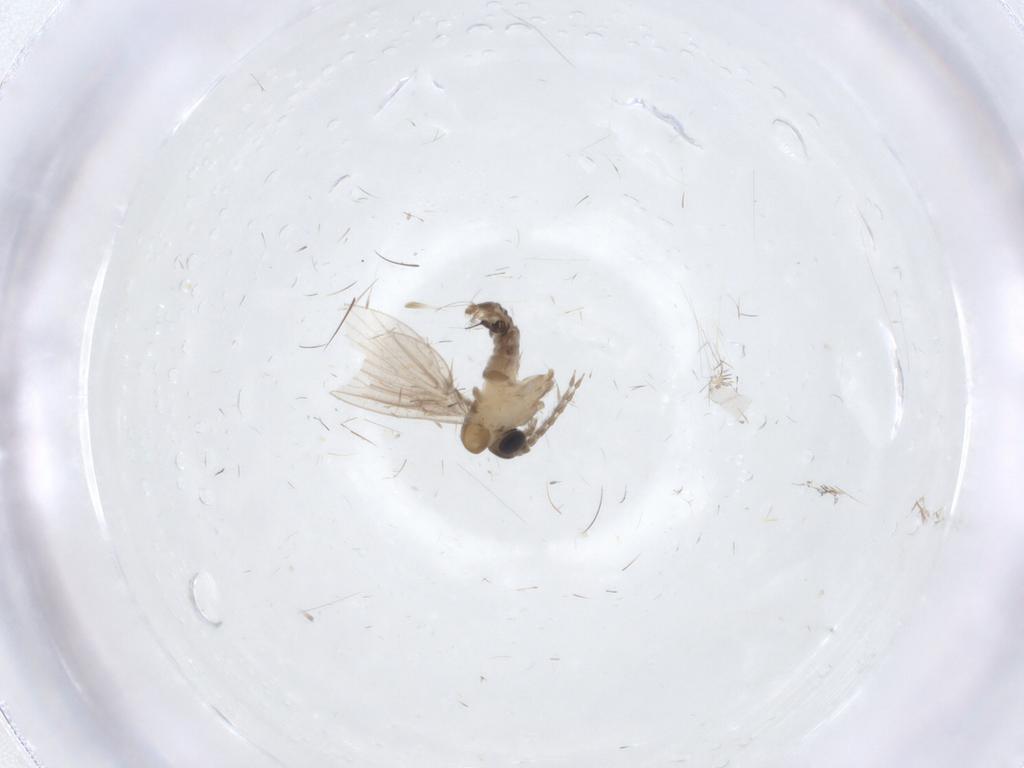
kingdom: Animalia
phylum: Arthropoda
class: Insecta
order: Diptera
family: Psychodidae
